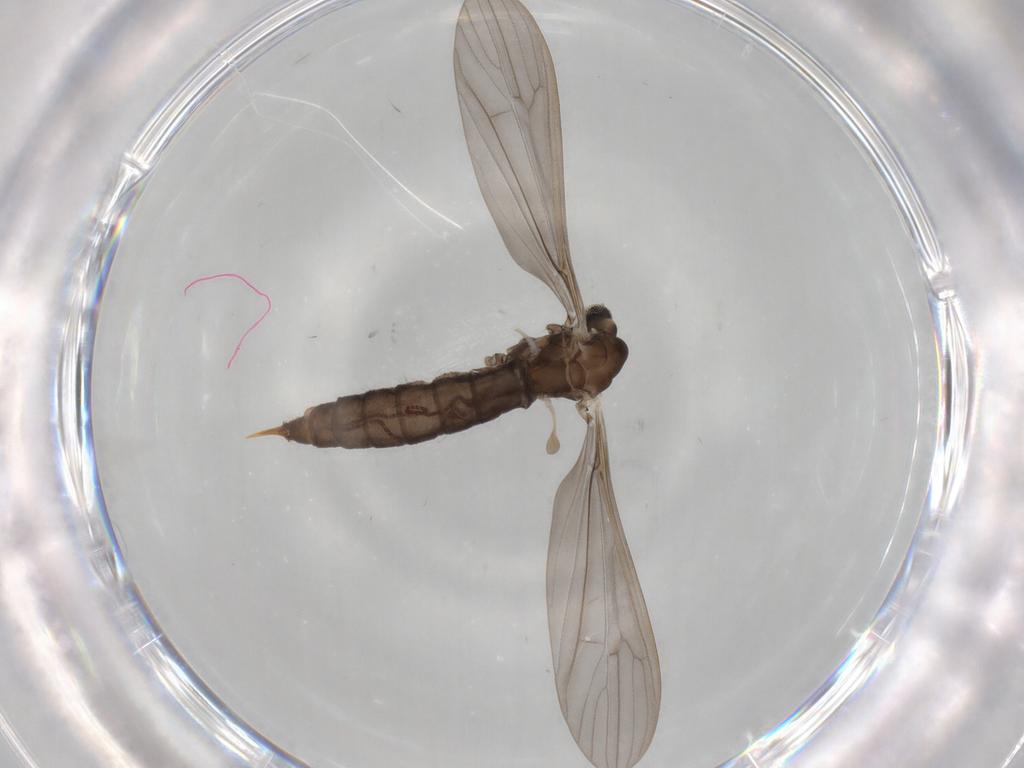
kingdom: Animalia
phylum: Arthropoda
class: Insecta
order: Diptera
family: Limoniidae
